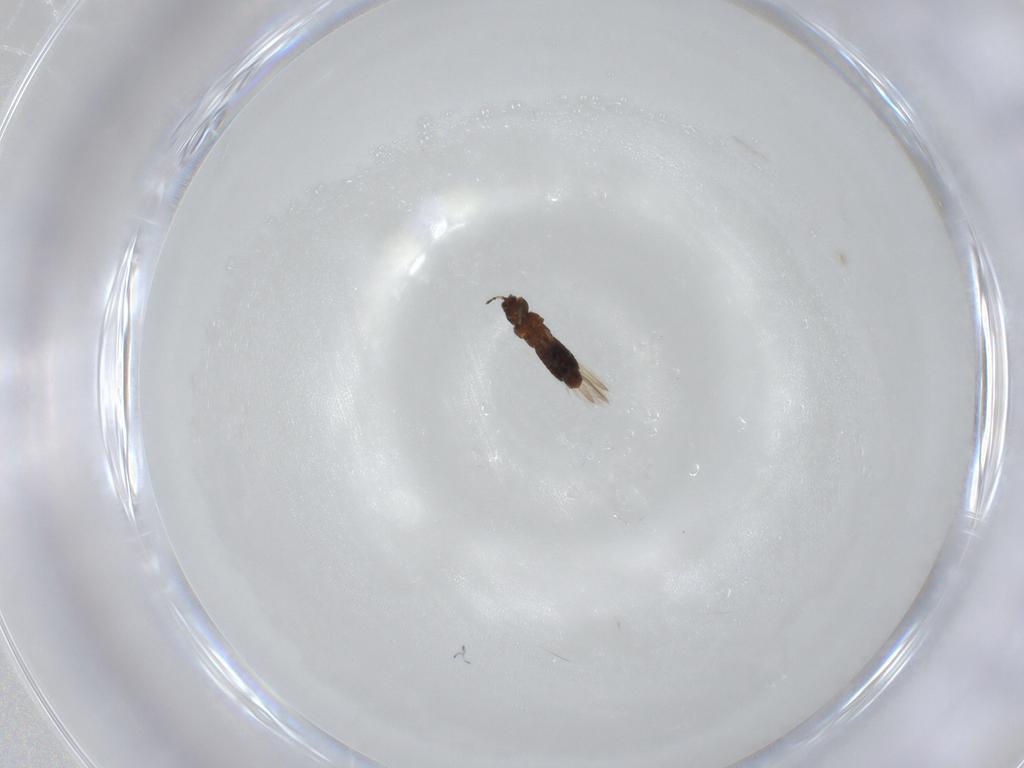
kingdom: Animalia
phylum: Arthropoda
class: Insecta
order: Thysanoptera
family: Thripidae
